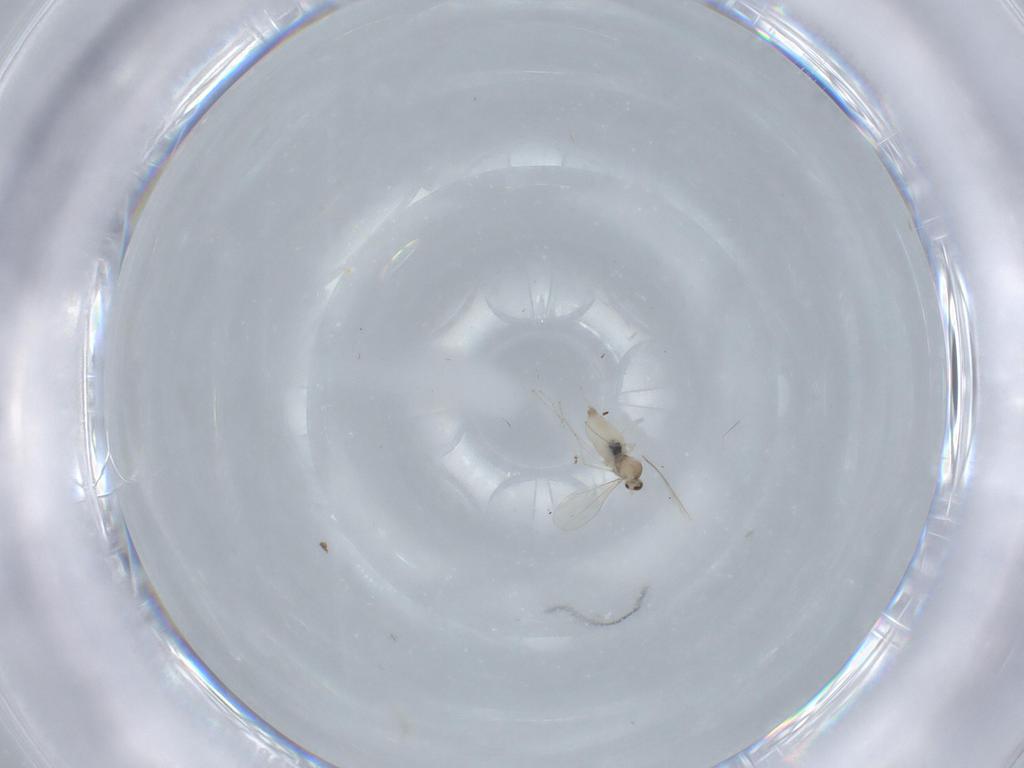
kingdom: Animalia
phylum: Arthropoda
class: Insecta
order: Diptera
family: Cecidomyiidae
